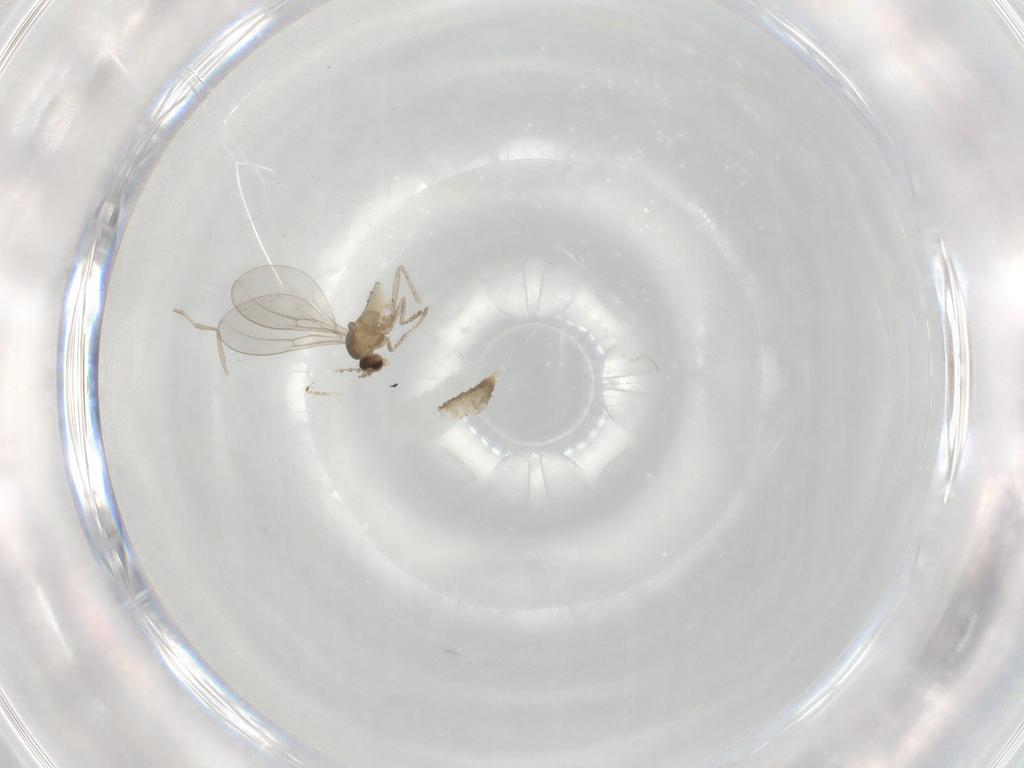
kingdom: Animalia
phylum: Arthropoda
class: Insecta
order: Diptera
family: Cecidomyiidae
